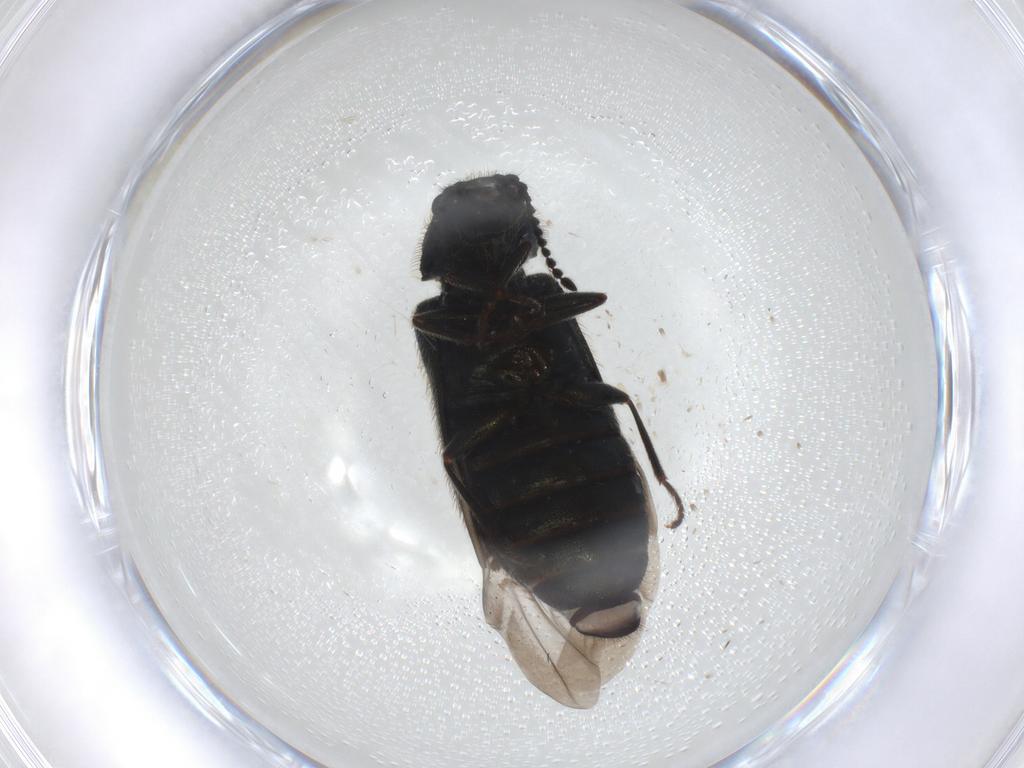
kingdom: Animalia
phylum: Arthropoda
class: Insecta
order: Coleoptera
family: Melyridae
